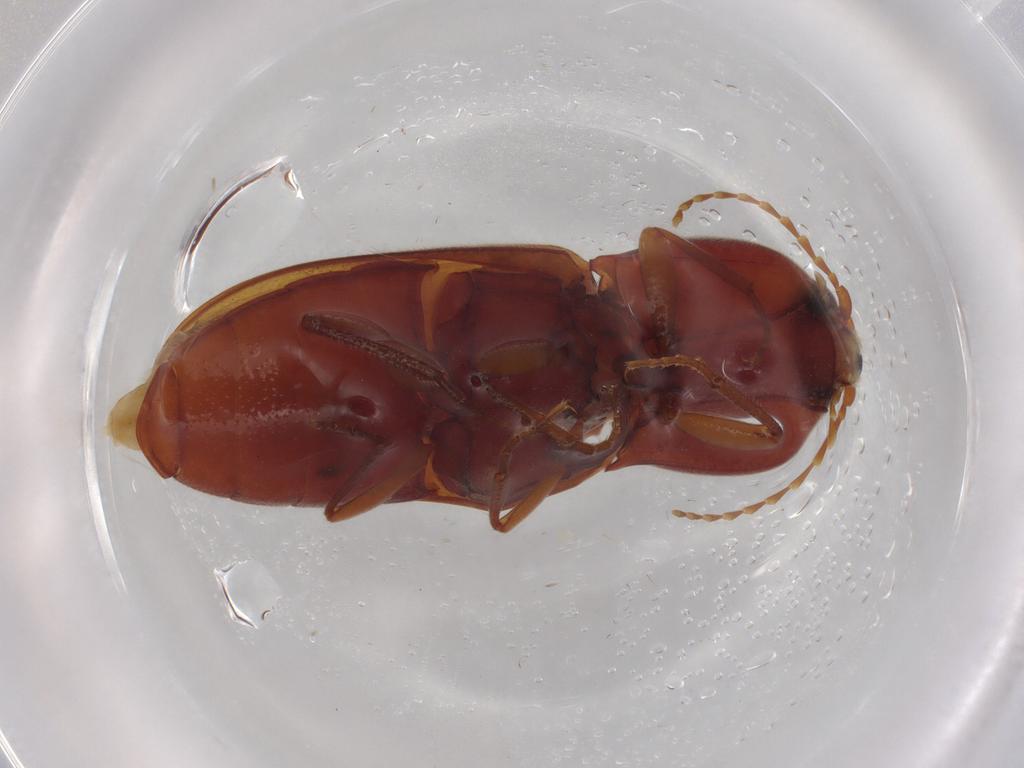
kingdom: Animalia
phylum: Arthropoda
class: Insecta
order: Coleoptera
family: Elateridae
